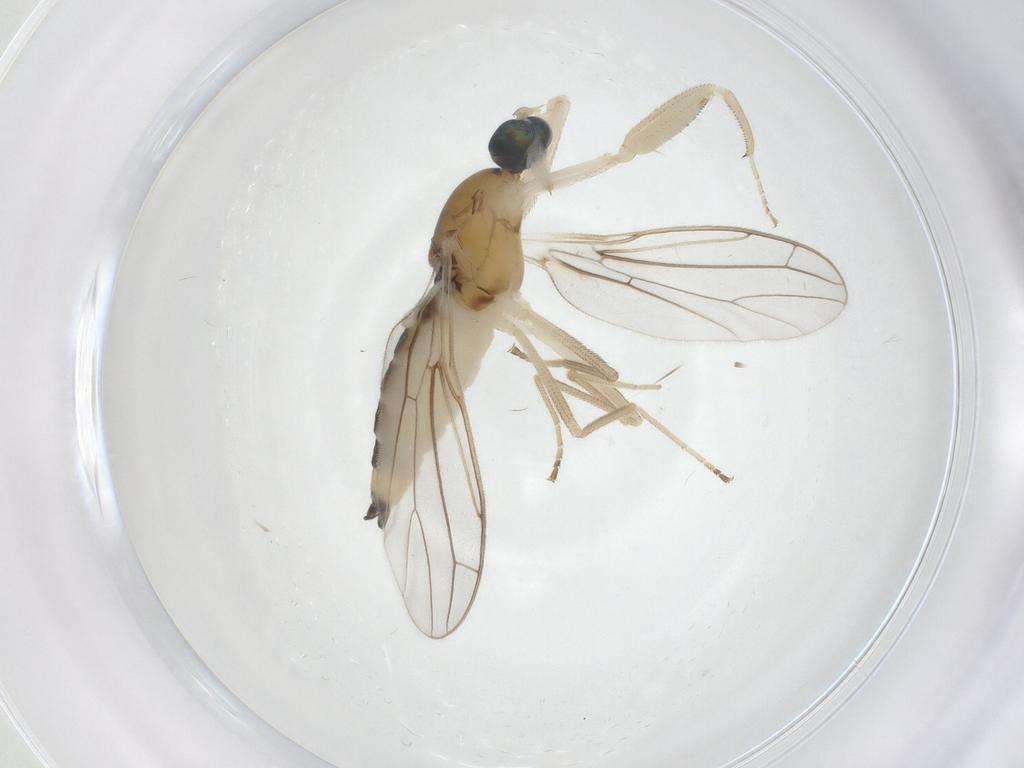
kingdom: Animalia
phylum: Arthropoda
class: Insecta
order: Diptera
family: Empididae
